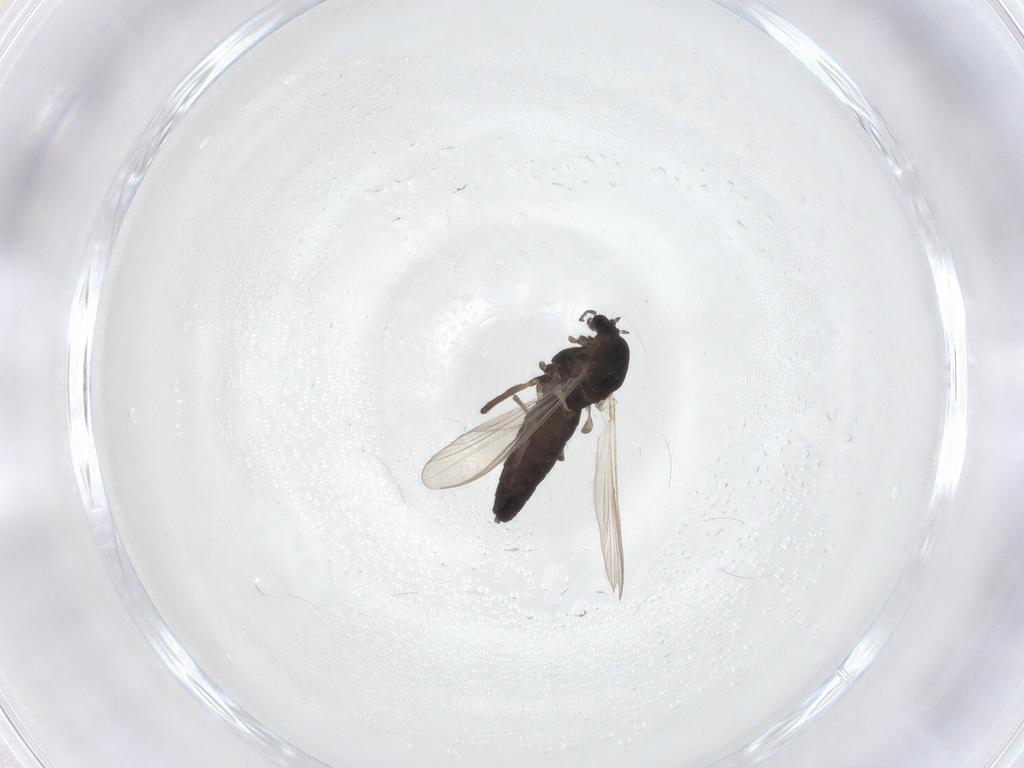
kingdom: Animalia
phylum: Arthropoda
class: Insecta
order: Diptera
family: Chironomidae
